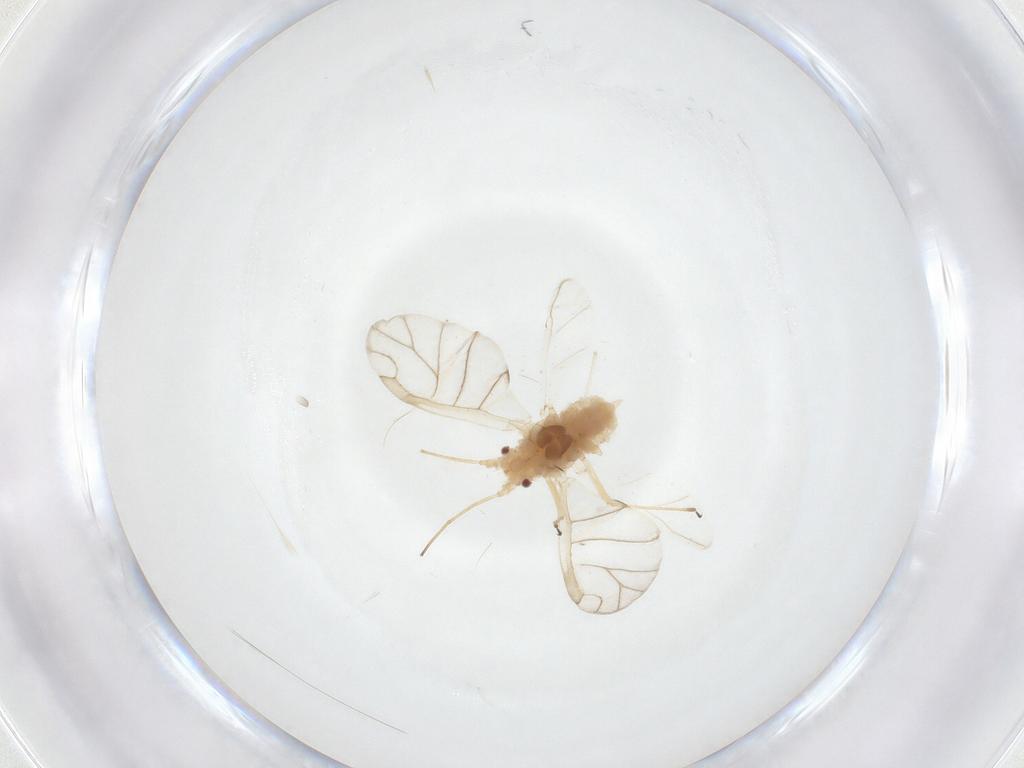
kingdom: Animalia
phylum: Arthropoda
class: Insecta
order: Hemiptera
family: Aphididae
